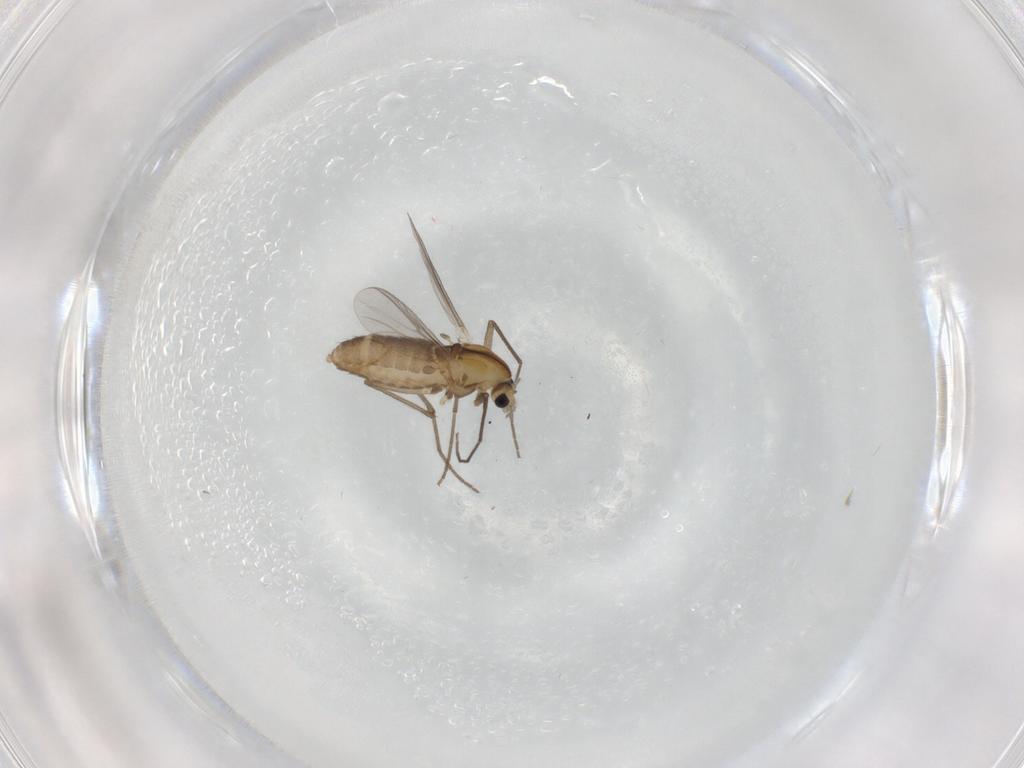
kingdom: Animalia
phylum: Arthropoda
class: Insecta
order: Diptera
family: Chironomidae
